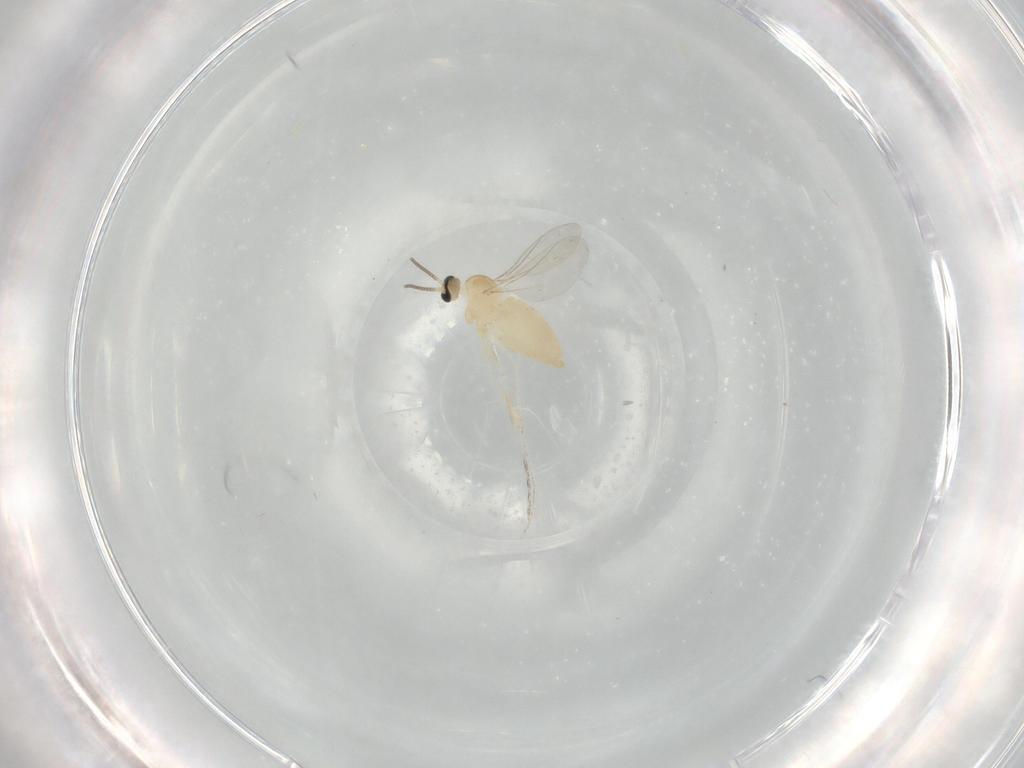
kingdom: Animalia
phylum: Arthropoda
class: Insecta
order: Diptera
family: Cecidomyiidae
